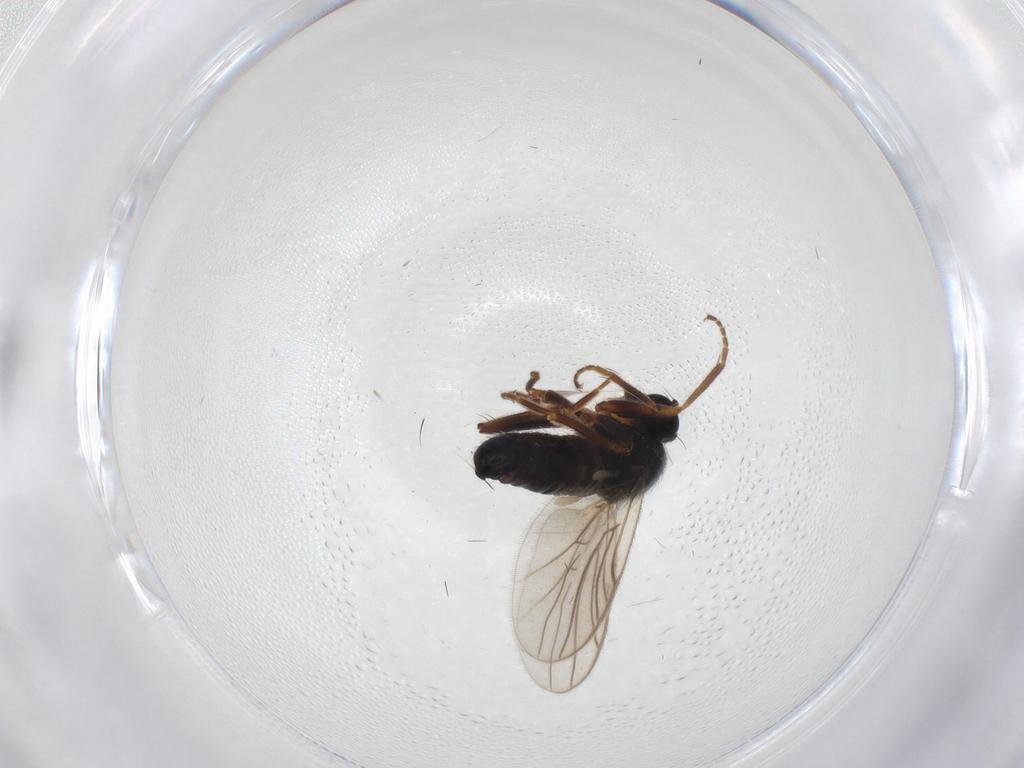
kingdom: Animalia
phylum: Arthropoda
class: Insecta
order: Diptera
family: Hybotidae
